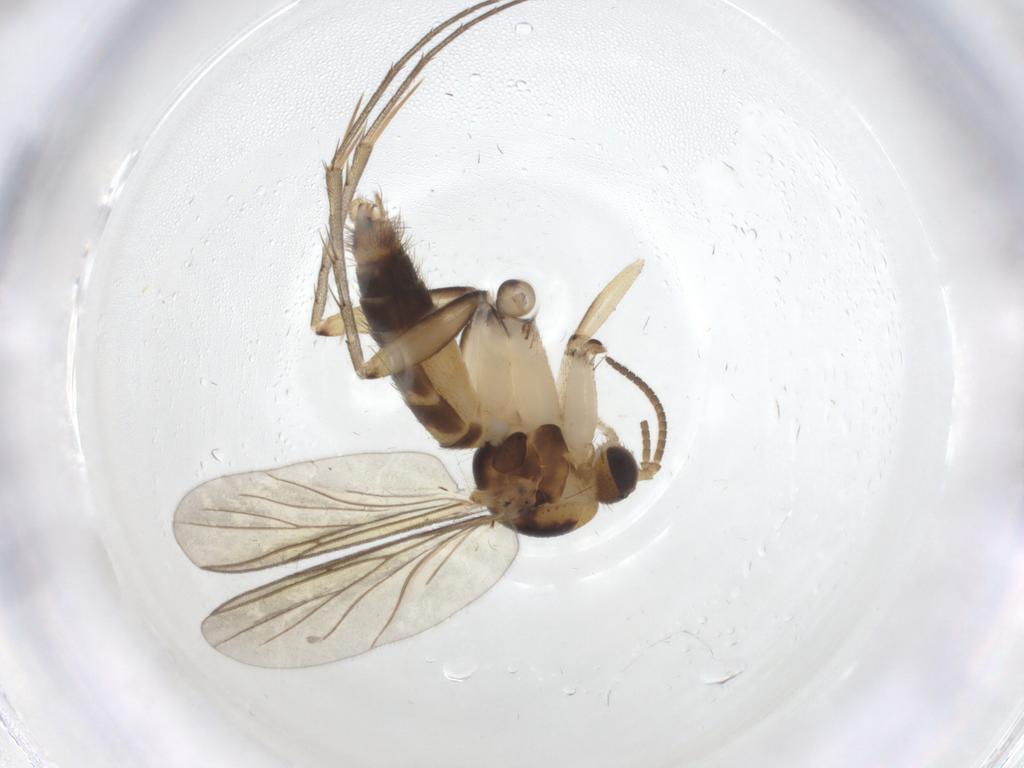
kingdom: Animalia
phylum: Arthropoda
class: Insecta
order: Diptera
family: Mycetophilidae
